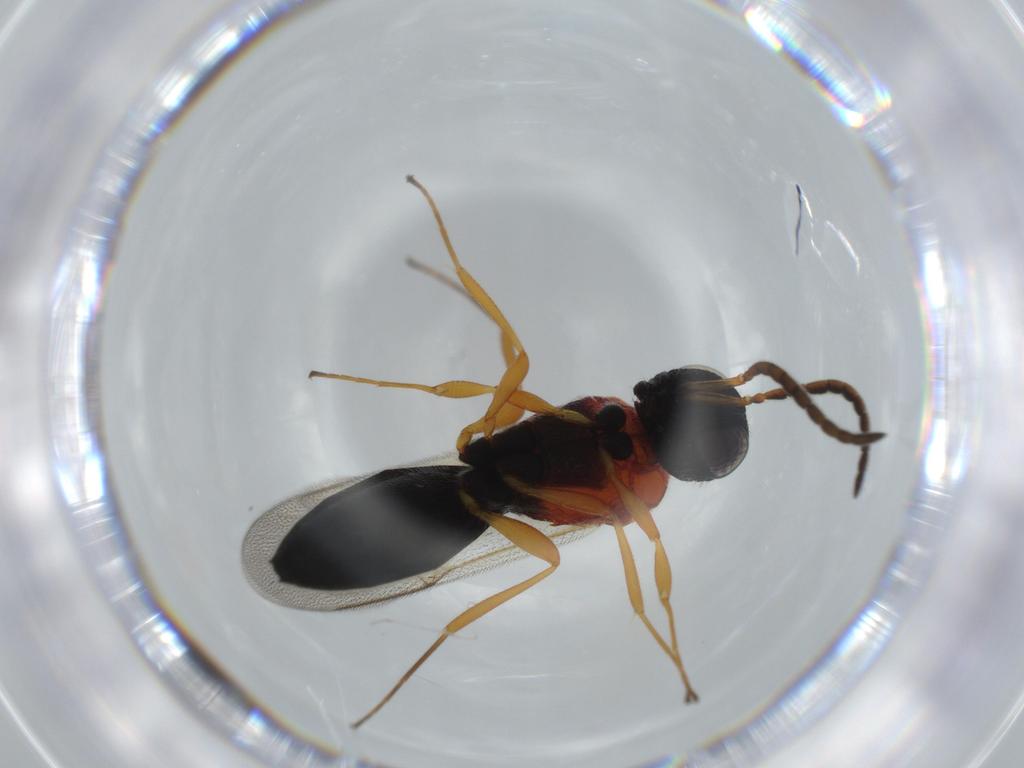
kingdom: Animalia
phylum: Arthropoda
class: Insecta
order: Hymenoptera
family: Scelionidae
